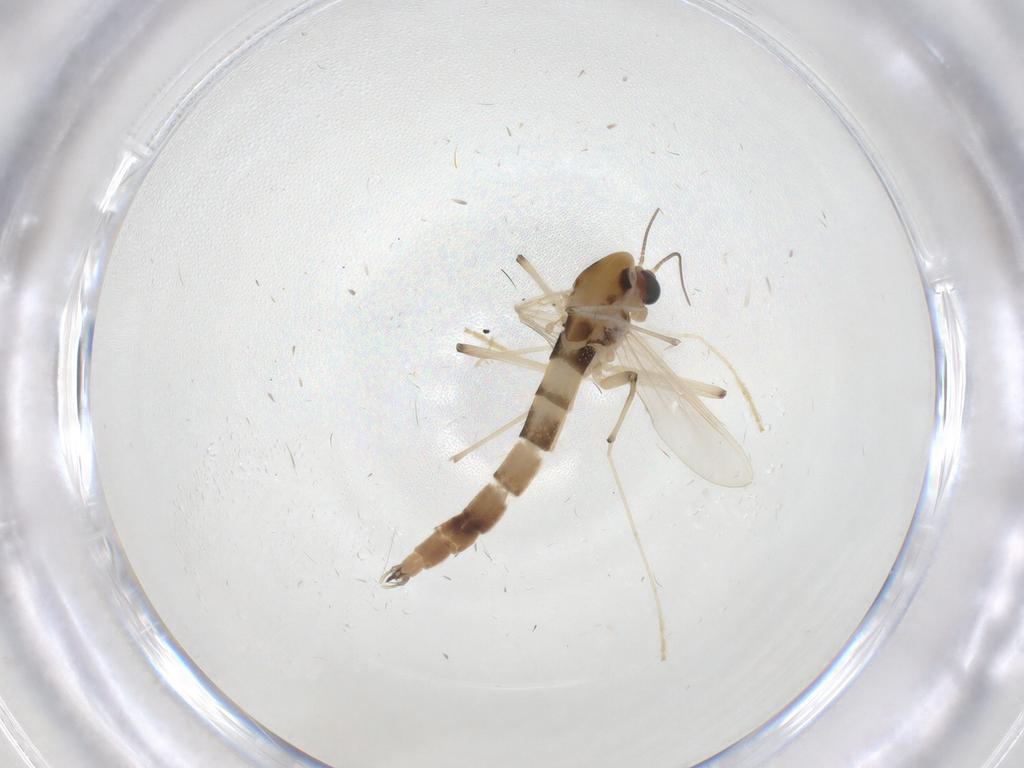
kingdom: Animalia
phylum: Arthropoda
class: Insecta
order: Diptera
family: Chironomidae
